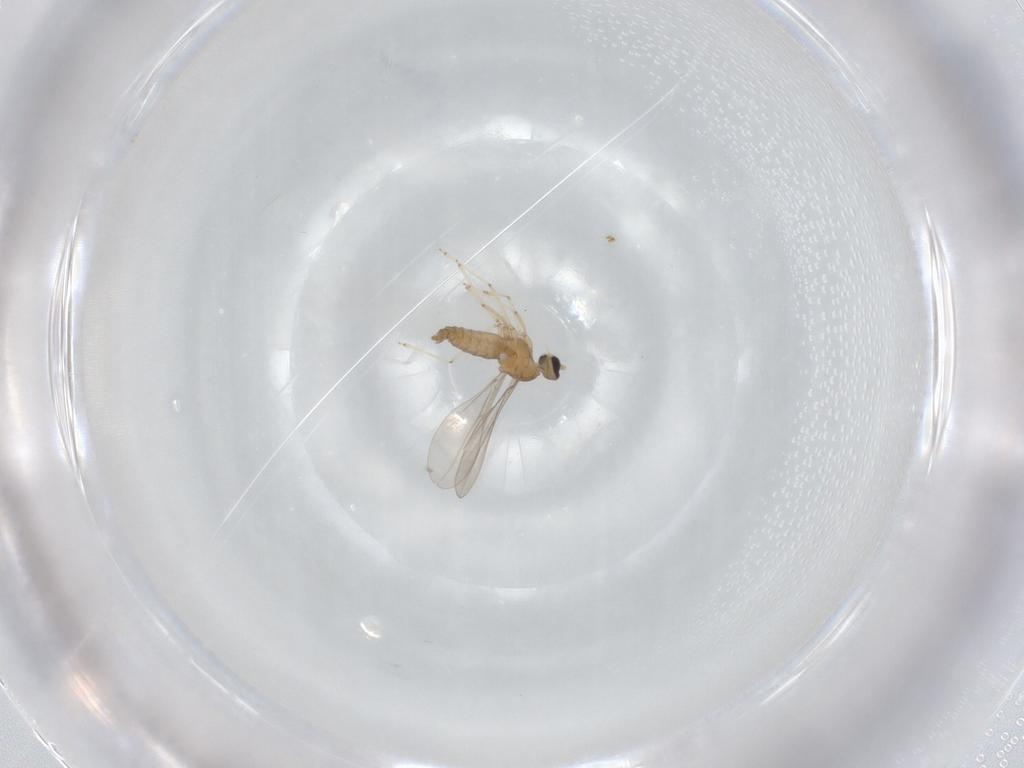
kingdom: Animalia
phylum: Arthropoda
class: Insecta
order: Diptera
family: Cecidomyiidae
